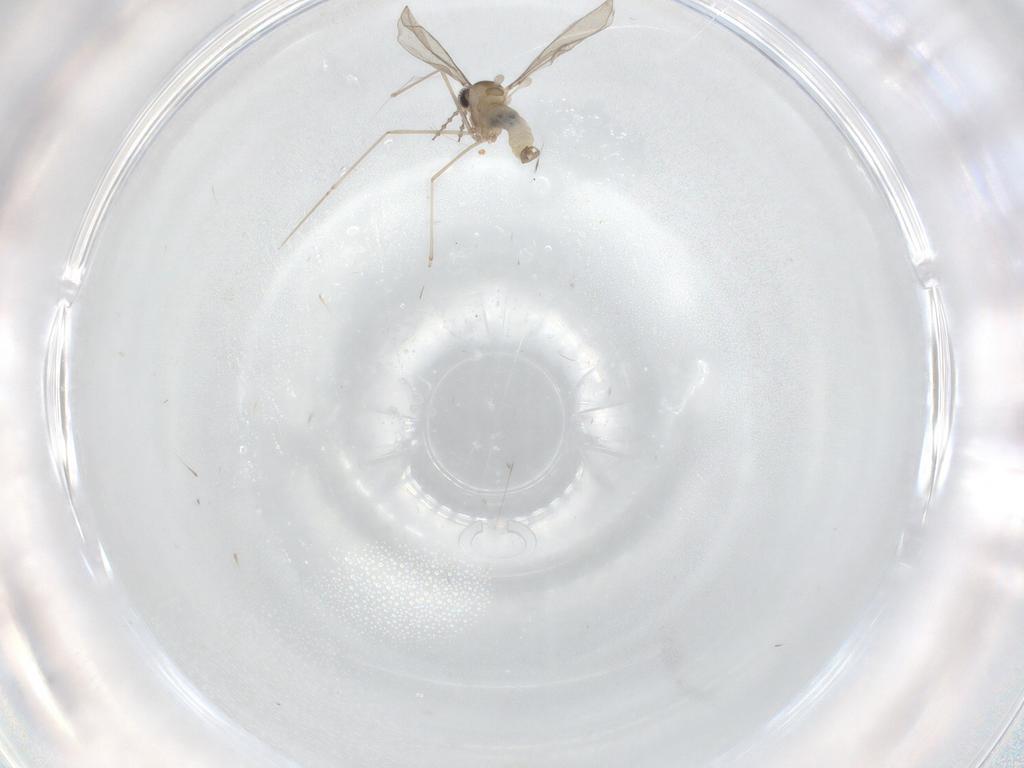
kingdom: Animalia
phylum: Arthropoda
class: Insecta
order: Diptera
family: Cecidomyiidae
